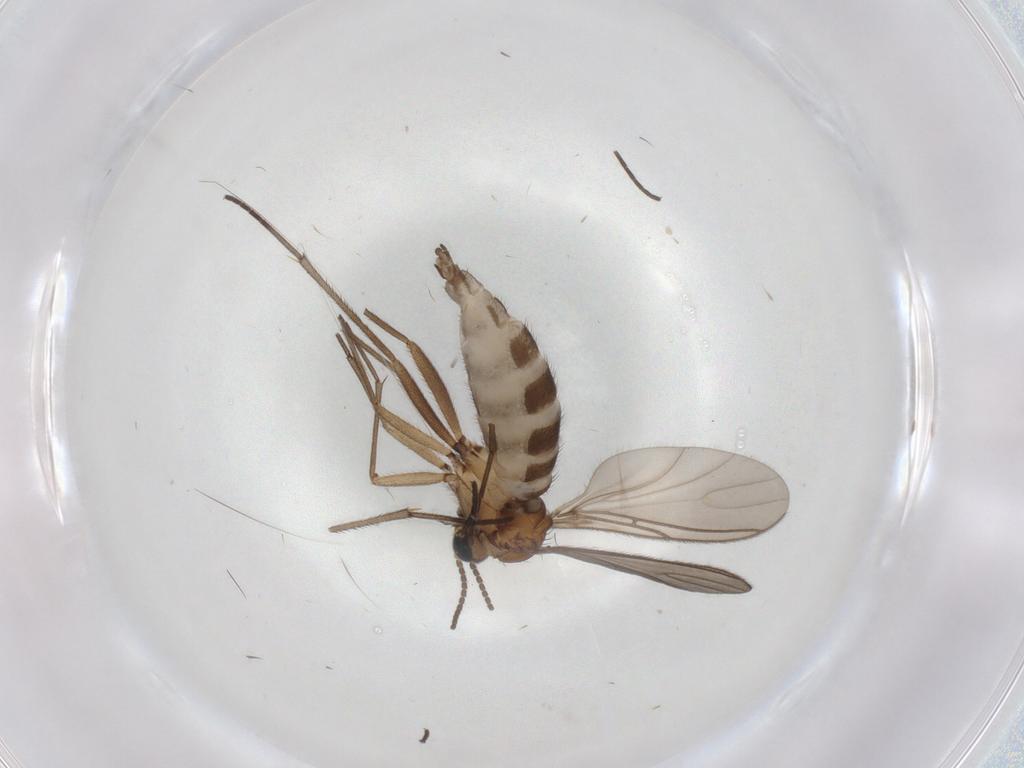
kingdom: Animalia
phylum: Arthropoda
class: Insecta
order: Diptera
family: Sciaridae
